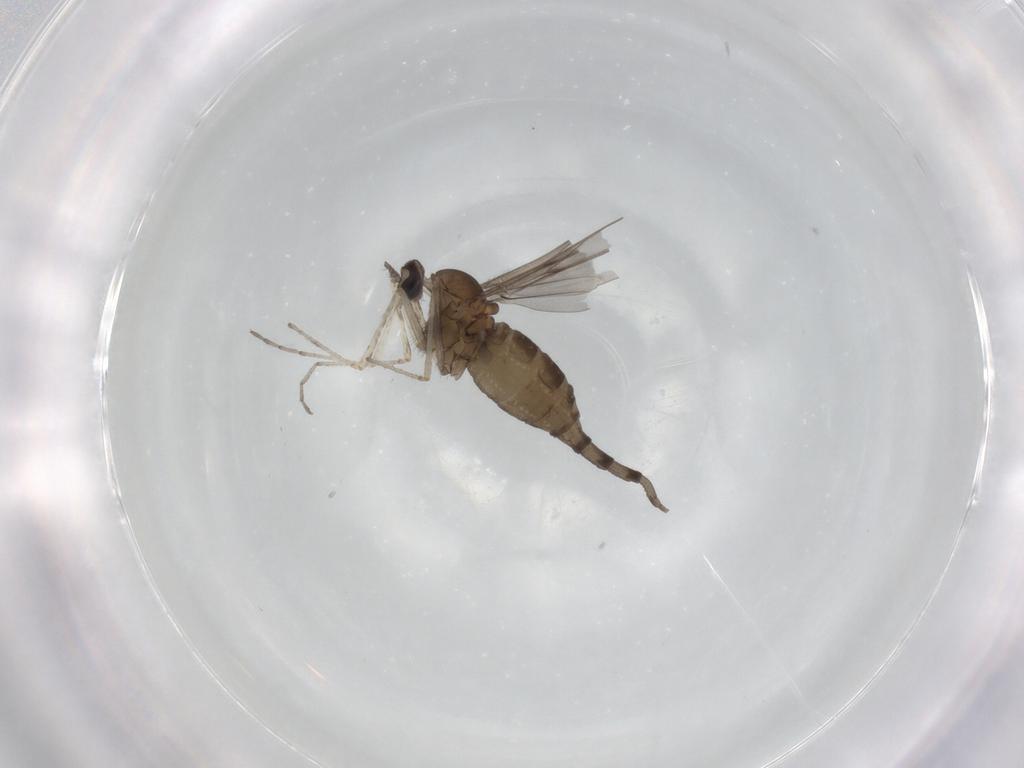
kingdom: Animalia
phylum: Arthropoda
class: Insecta
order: Diptera
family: Cecidomyiidae
